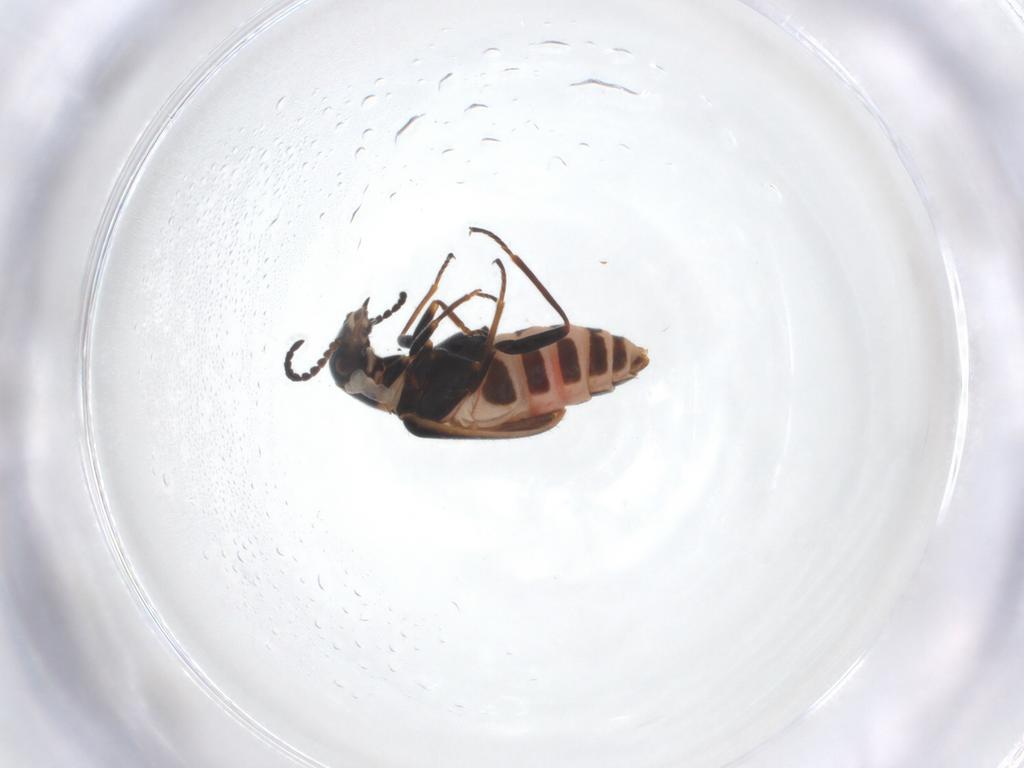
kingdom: Animalia
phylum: Arthropoda
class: Insecta
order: Coleoptera
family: Melyridae
